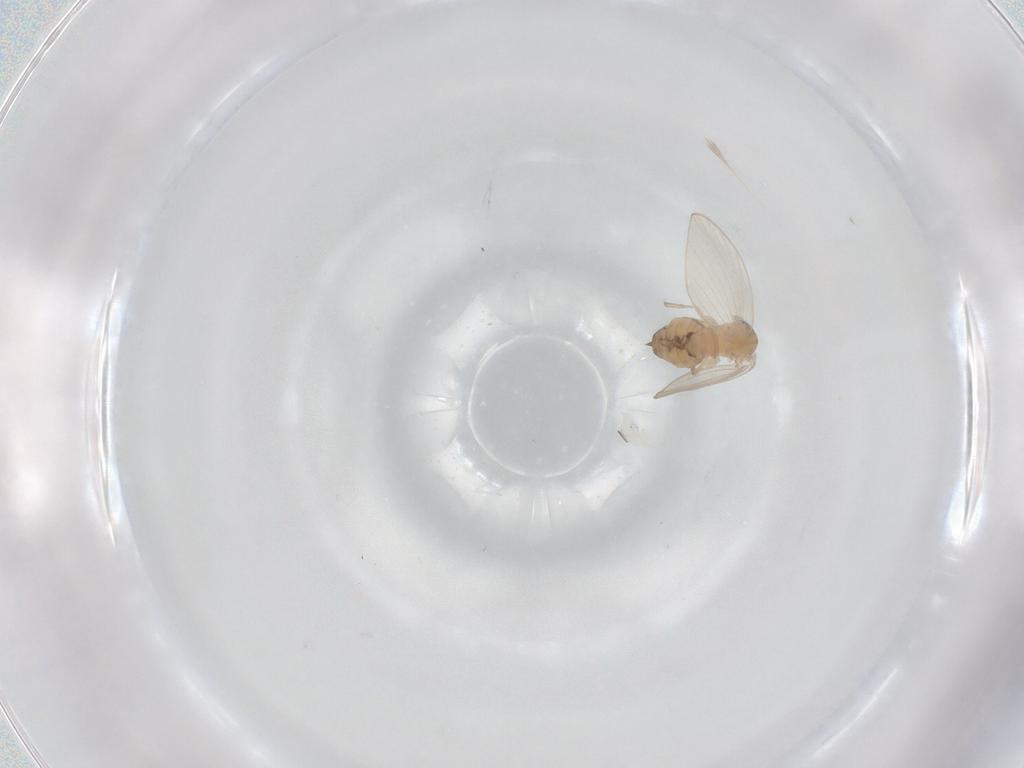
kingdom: Animalia
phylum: Arthropoda
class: Insecta
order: Diptera
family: Psychodidae
